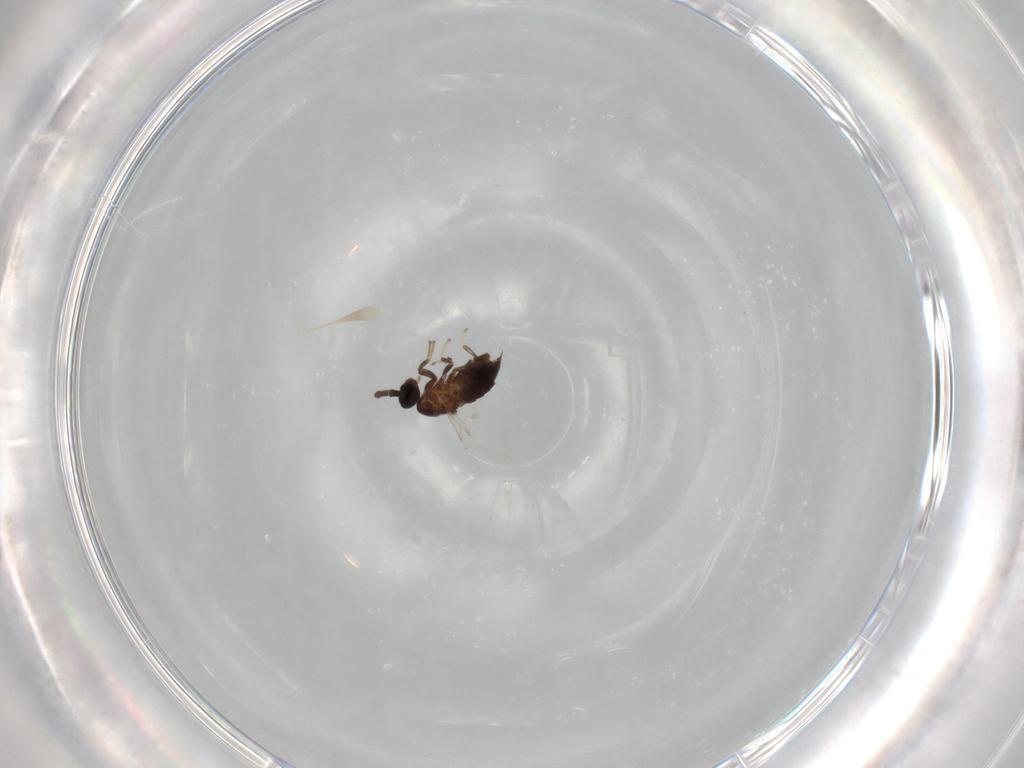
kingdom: Animalia
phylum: Arthropoda
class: Insecta
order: Diptera
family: Scatopsidae
